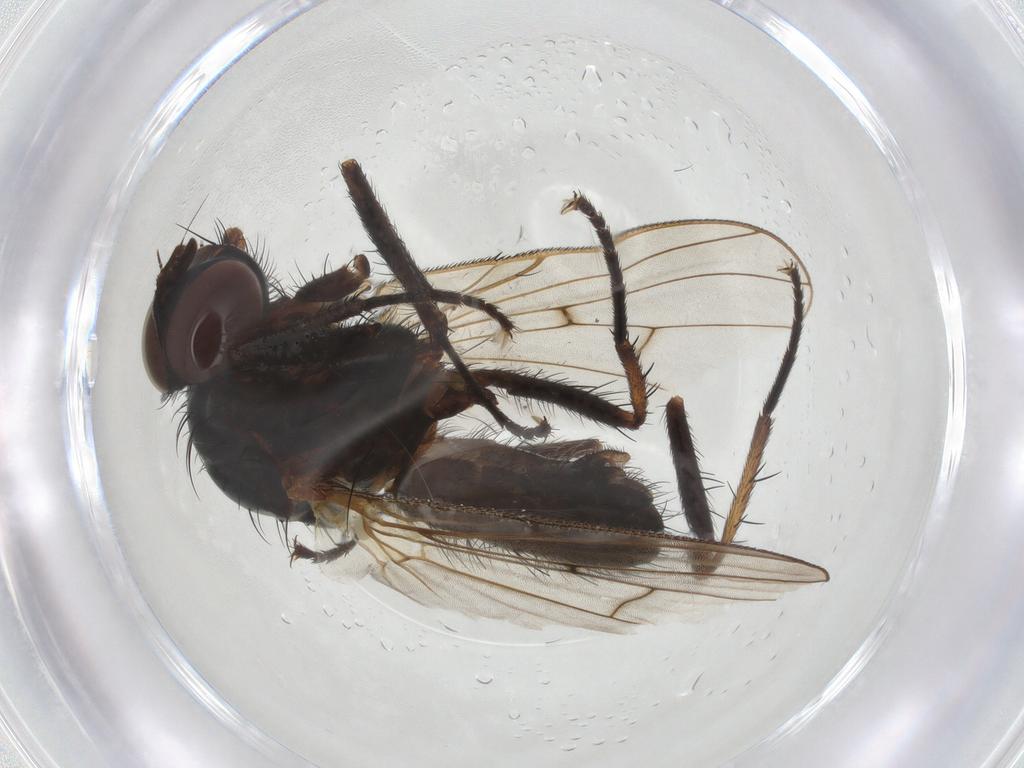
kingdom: Animalia
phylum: Arthropoda
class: Insecta
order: Diptera
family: Anthomyiidae
